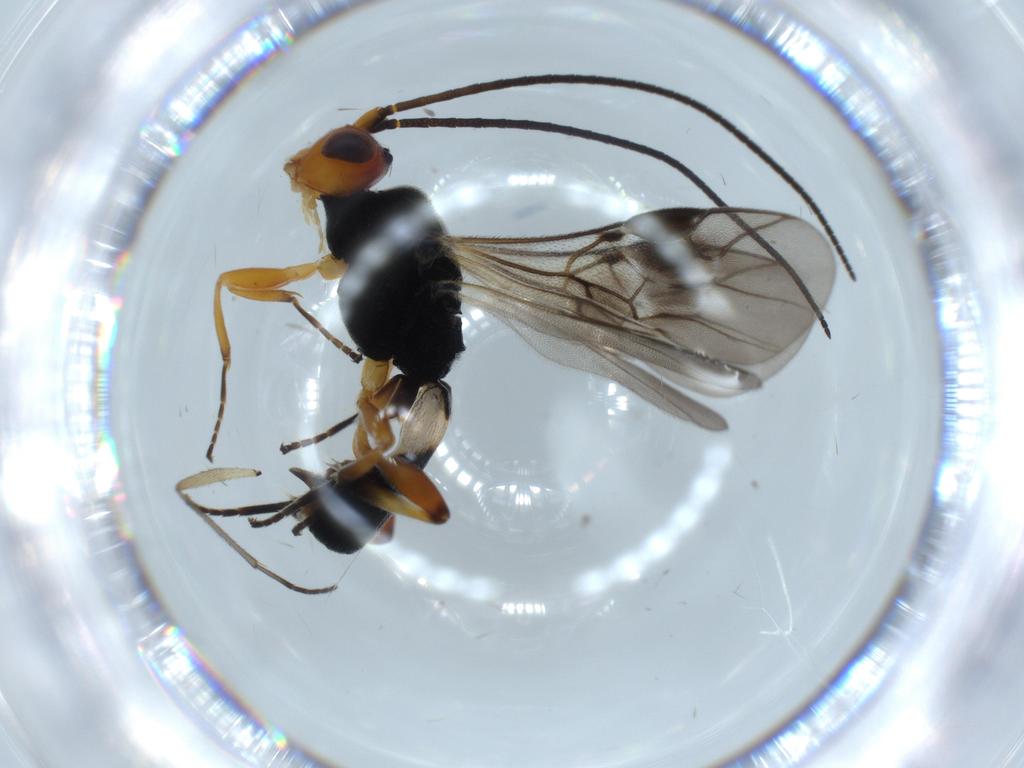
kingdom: Animalia
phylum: Arthropoda
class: Insecta
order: Hymenoptera
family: Braconidae
